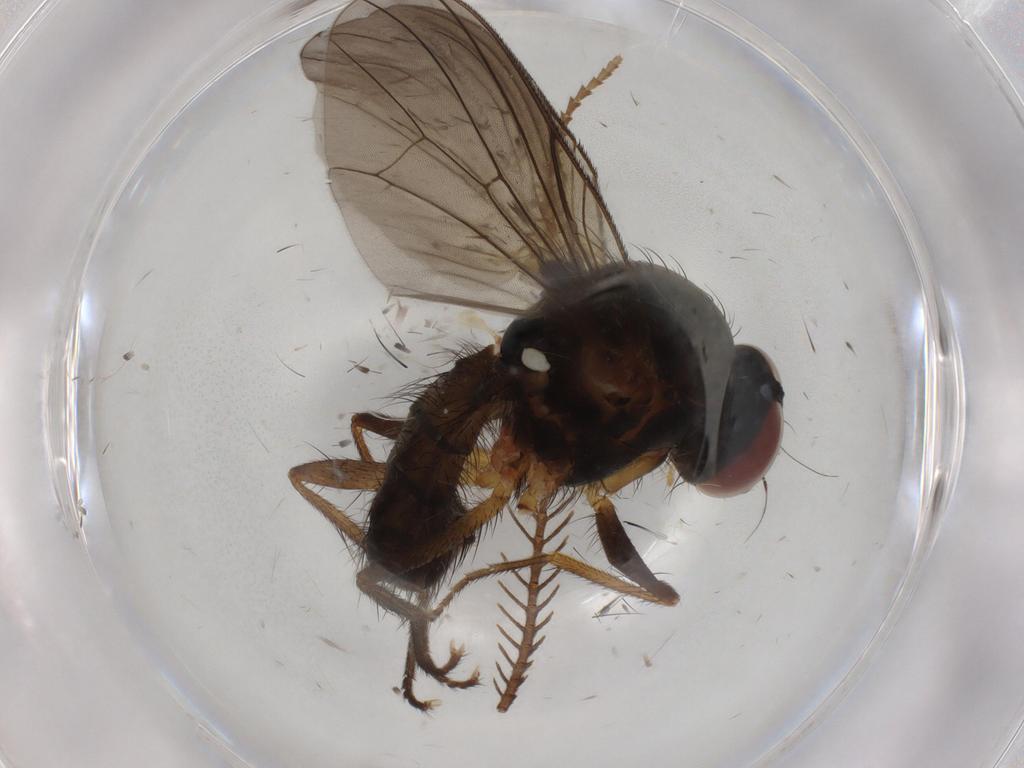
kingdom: Animalia
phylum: Arthropoda
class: Insecta
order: Diptera
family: Anthomyiidae
